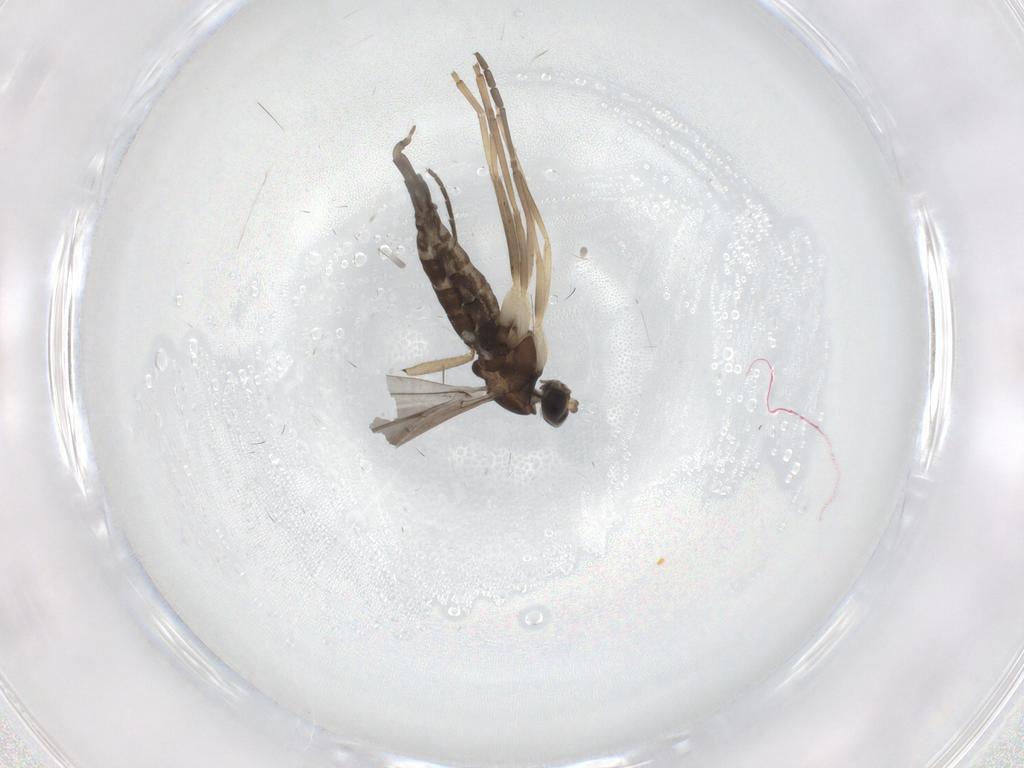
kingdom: Animalia
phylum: Arthropoda
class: Insecta
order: Diptera
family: Cecidomyiidae
